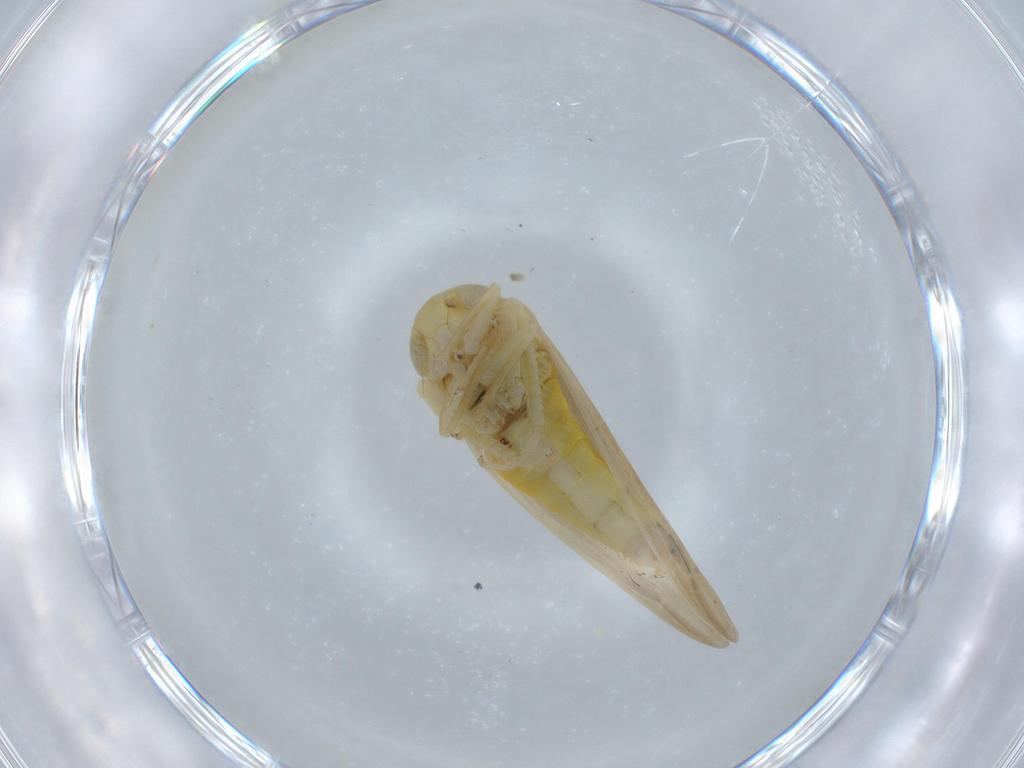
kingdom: Animalia
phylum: Arthropoda
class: Insecta
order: Hemiptera
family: Cicadellidae
